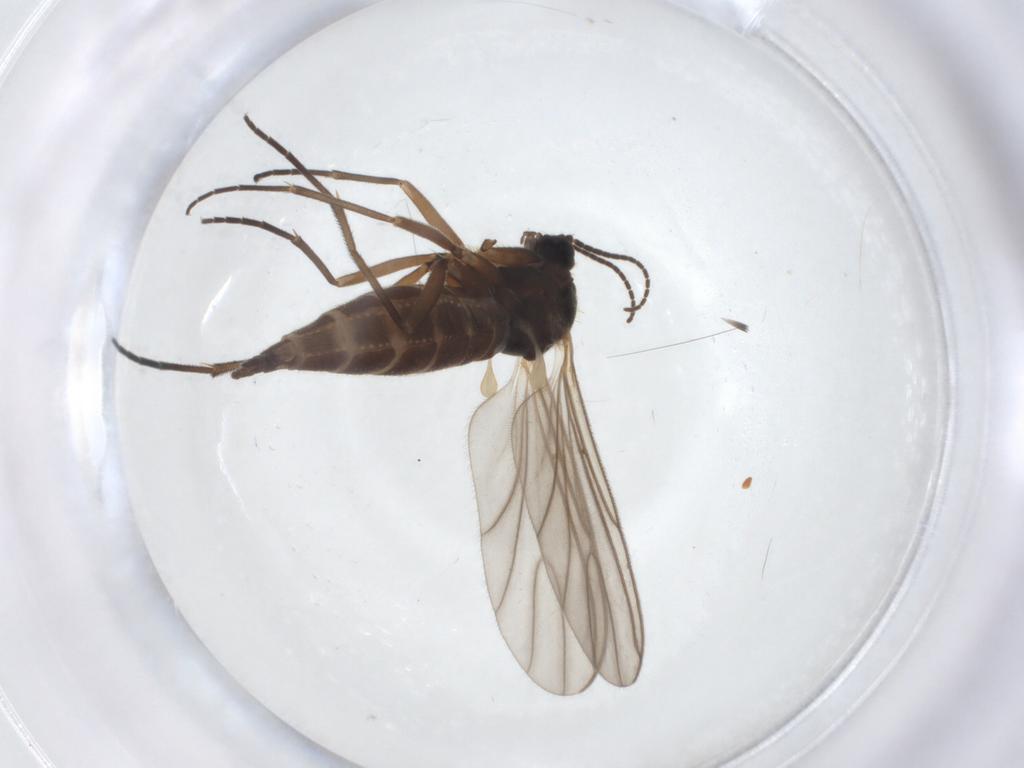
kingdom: Animalia
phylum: Arthropoda
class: Insecta
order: Diptera
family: Sciaridae
